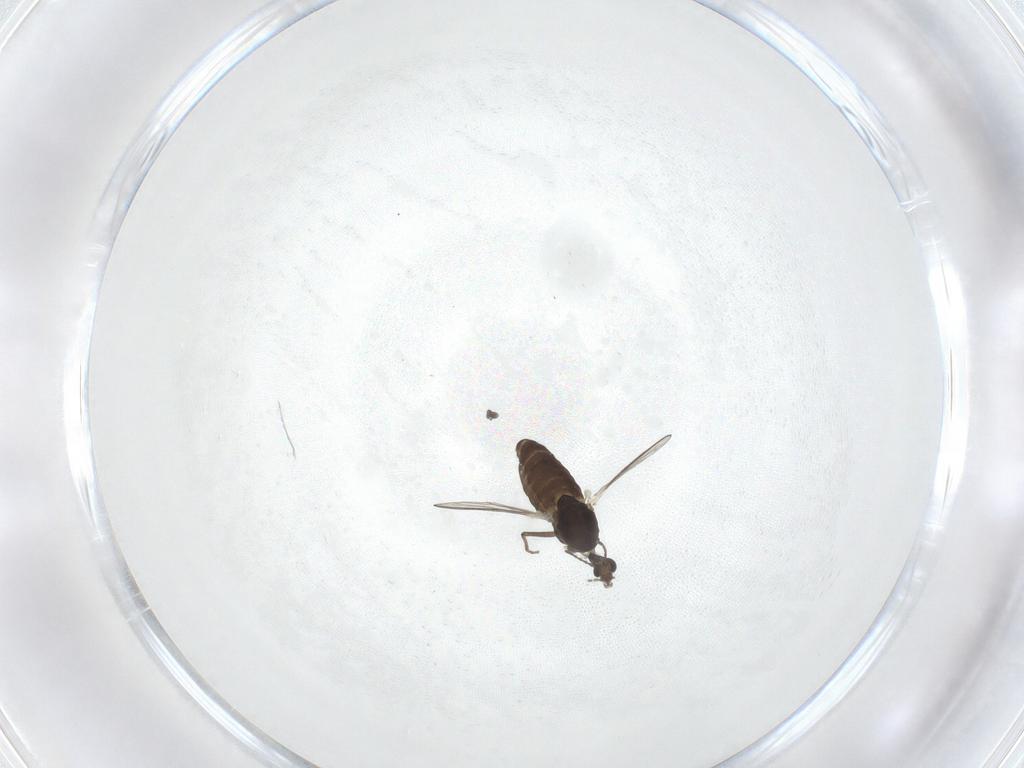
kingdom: Animalia
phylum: Arthropoda
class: Insecta
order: Diptera
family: Chironomidae
